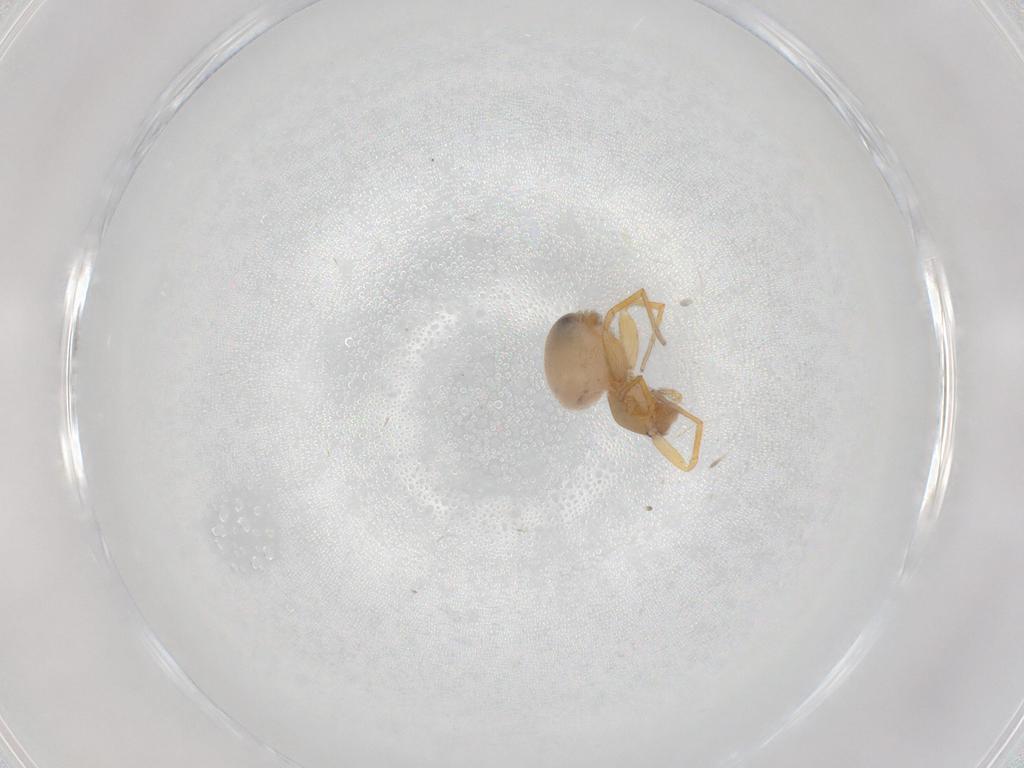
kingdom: Animalia
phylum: Arthropoda
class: Arachnida
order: Araneae
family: Oonopidae
